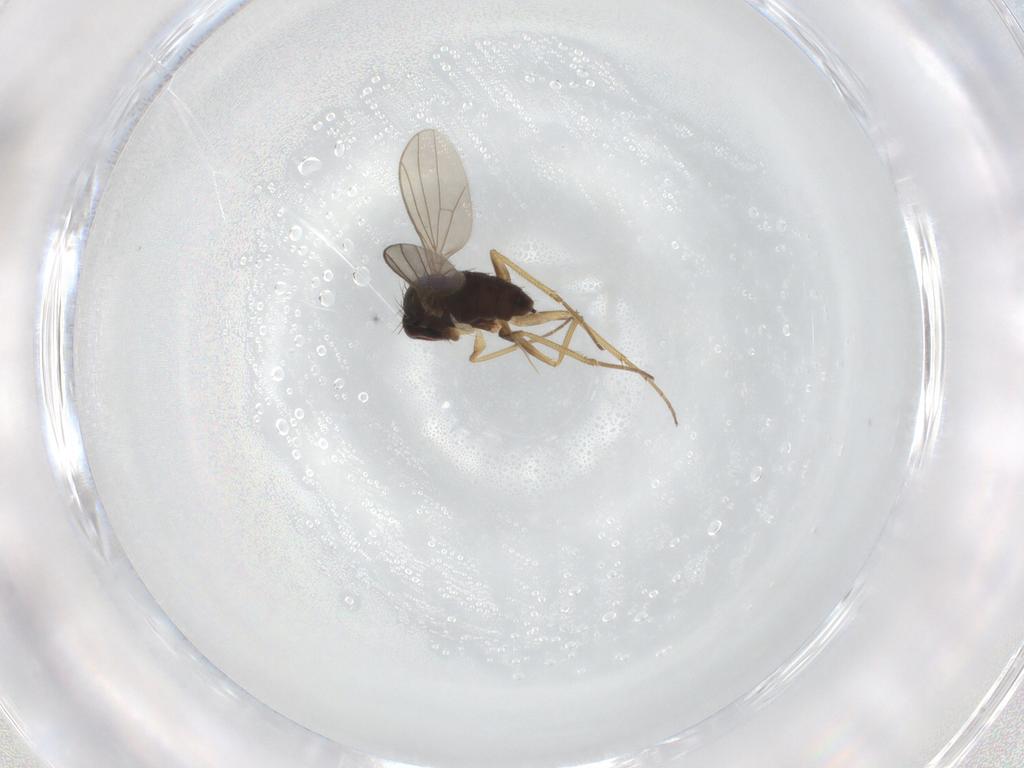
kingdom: Animalia
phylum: Arthropoda
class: Insecta
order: Diptera
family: Dolichopodidae
